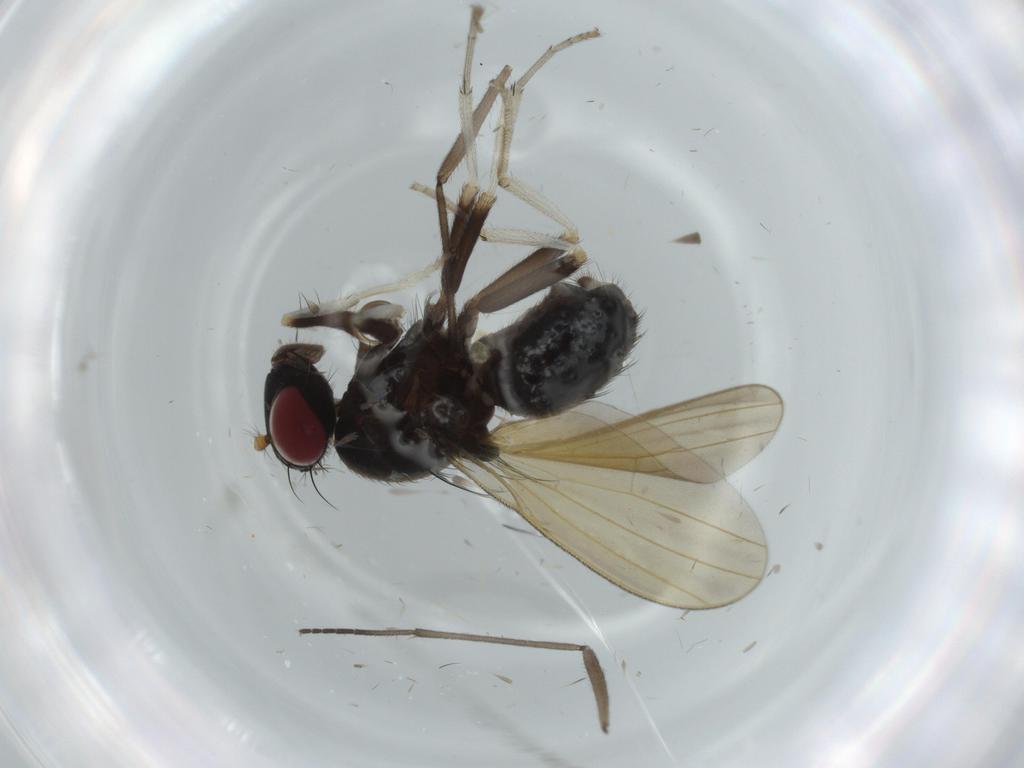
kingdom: Animalia
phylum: Arthropoda
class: Insecta
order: Diptera
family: Sciaridae
